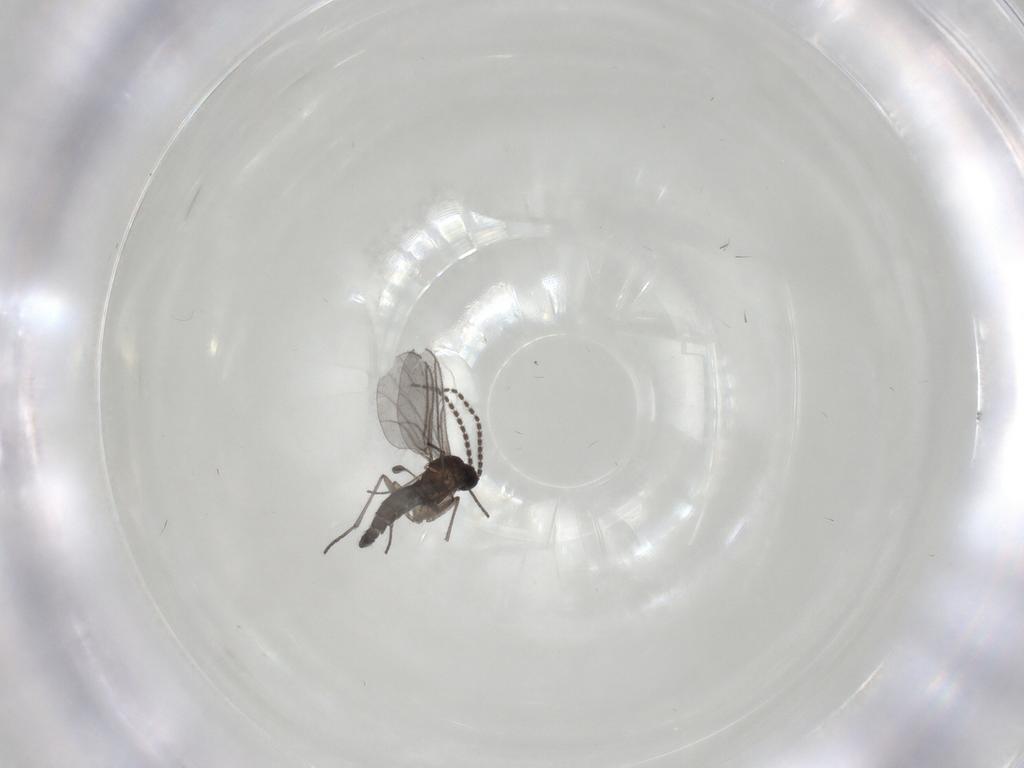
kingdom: Animalia
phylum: Arthropoda
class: Insecta
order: Diptera
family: Sciaridae
